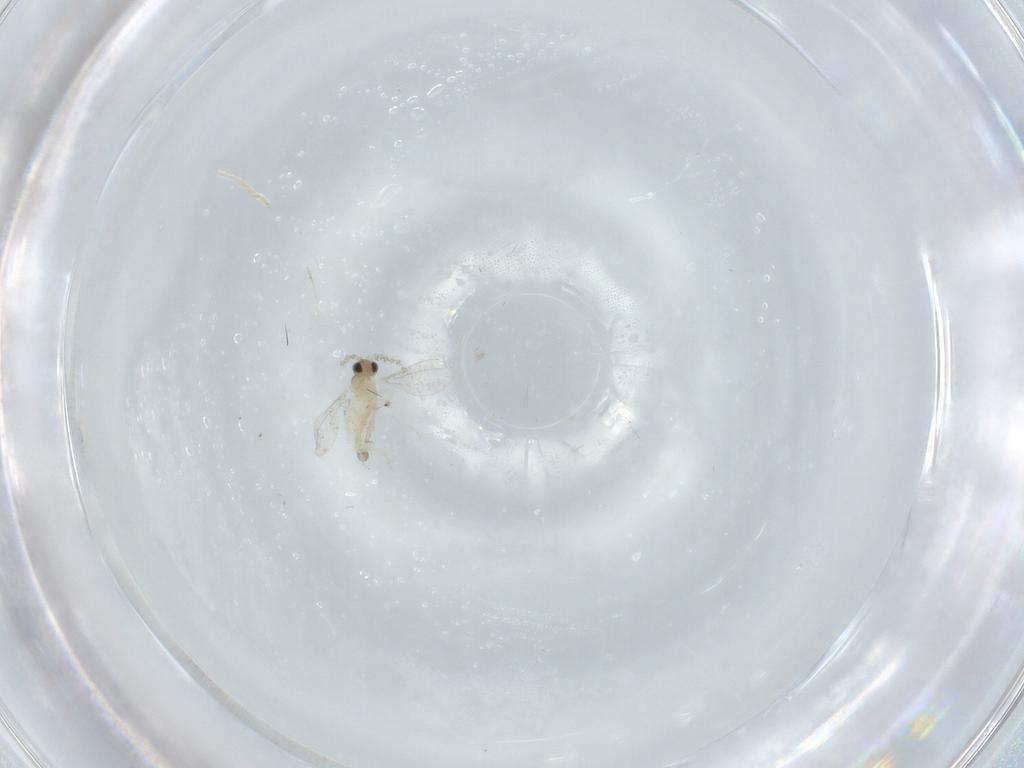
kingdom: Animalia
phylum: Arthropoda
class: Insecta
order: Diptera
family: Cecidomyiidae
